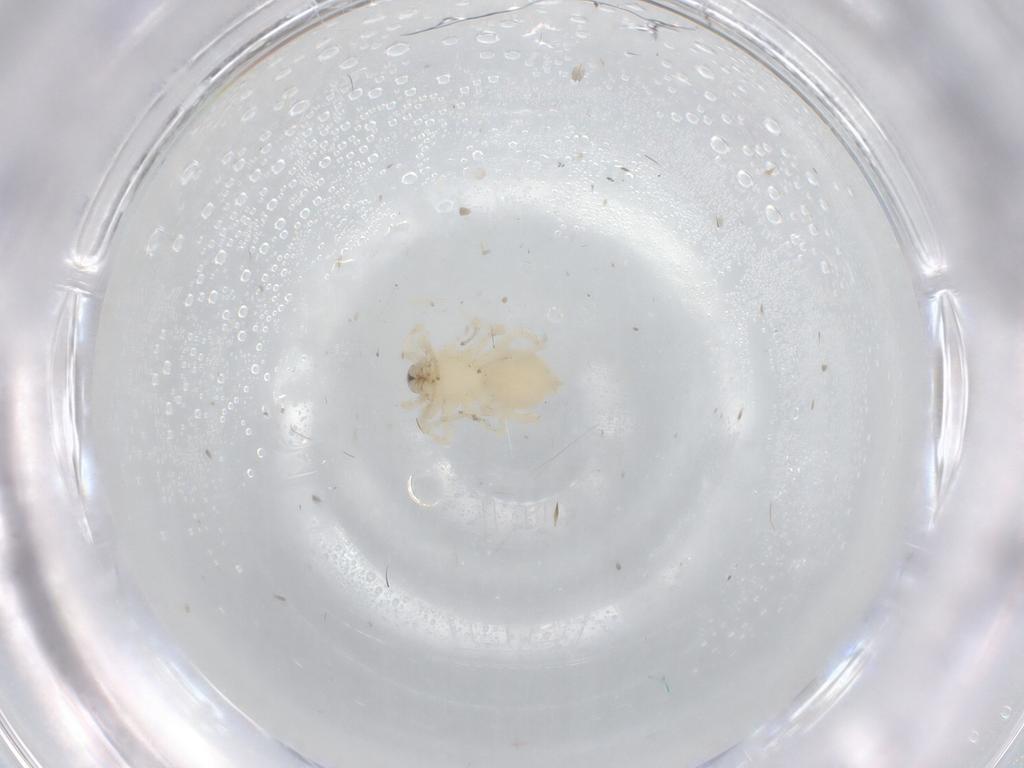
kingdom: Animalia
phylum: Arthropoda
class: Arachnida
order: Araneae
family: Gnaphosidae
